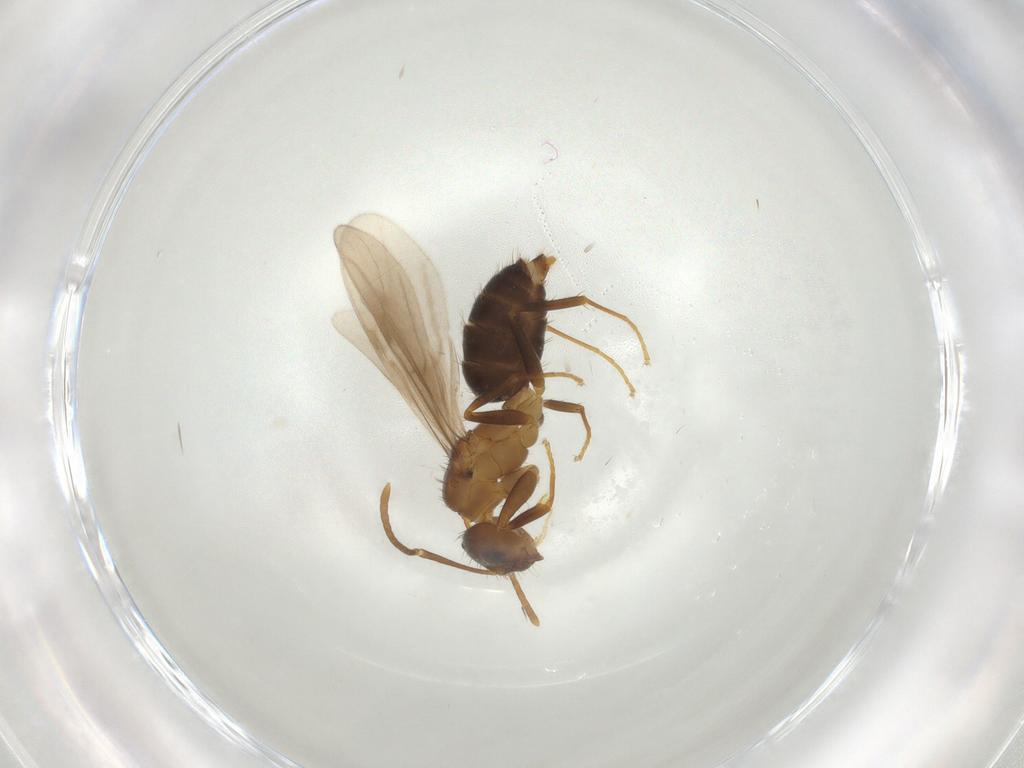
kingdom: Animalia
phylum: Arthropoda
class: Insecta
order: Hymenoptera
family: Formicidae
